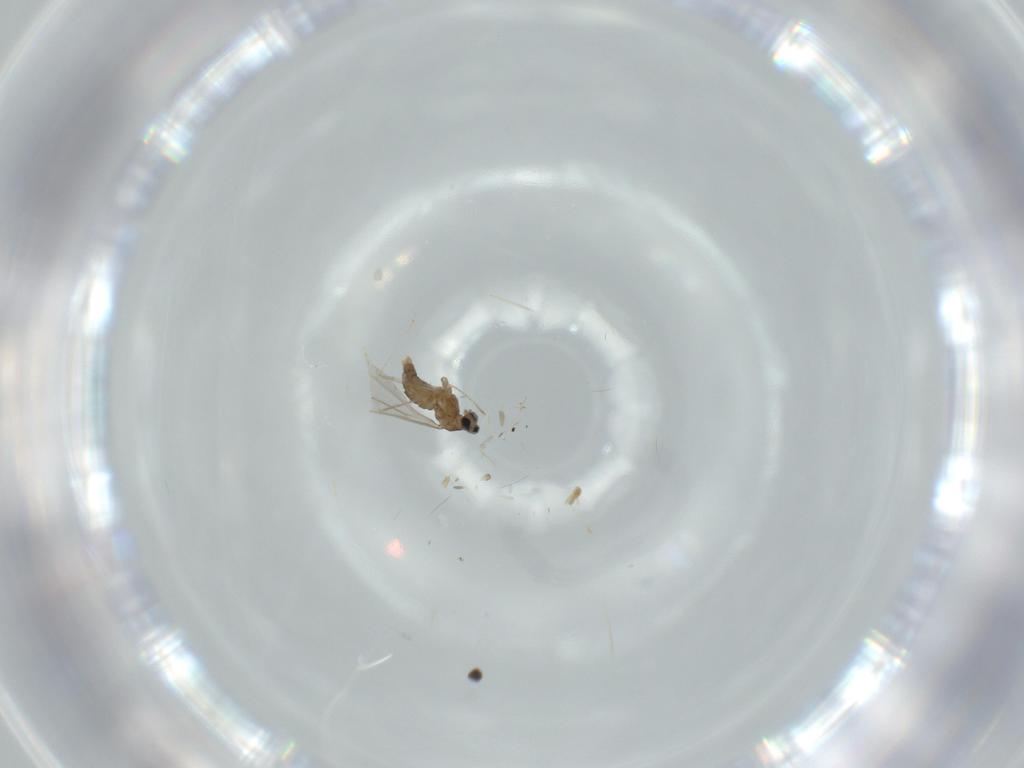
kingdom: Animalia
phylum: Arthropoda
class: Insecta
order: Diptera
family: Cecidomyiidae
